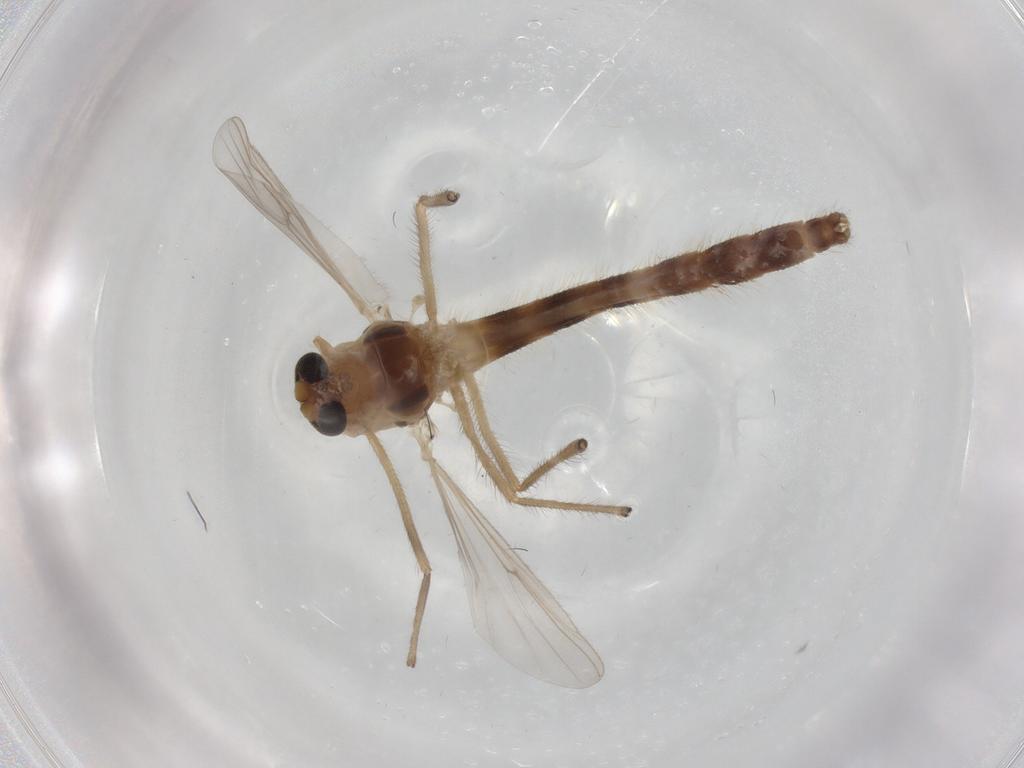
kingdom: Animalia
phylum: Arthropoda
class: Insecta
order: Diptera
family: Chironomidae
